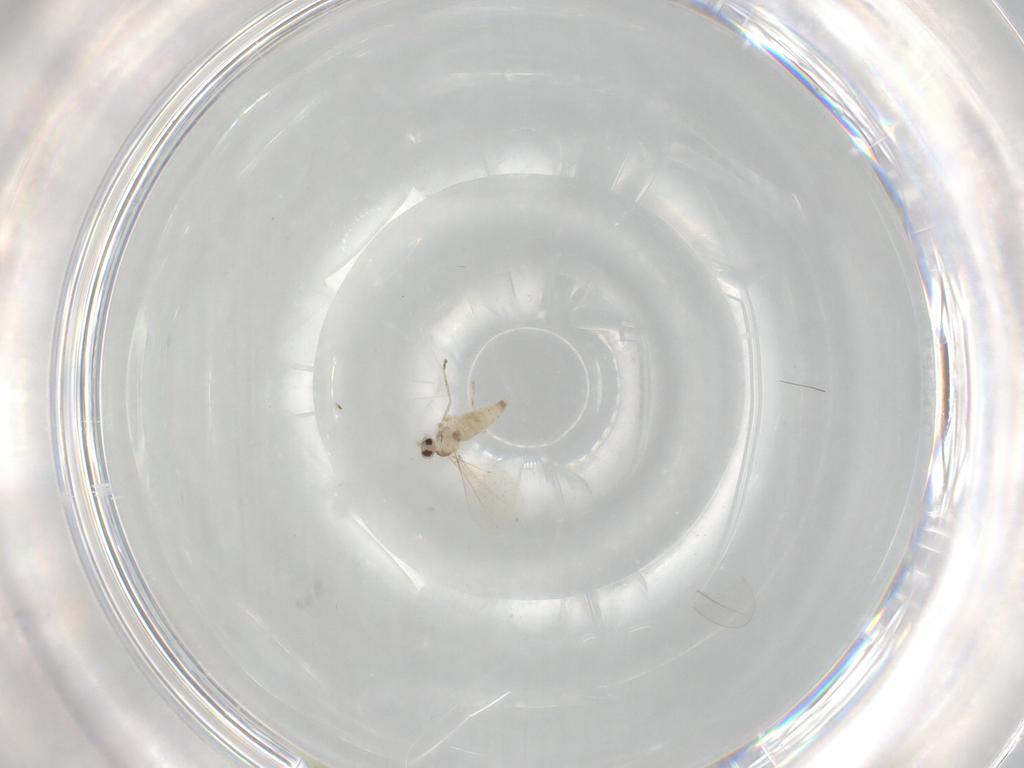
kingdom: Animalia
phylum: Arthropoda
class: Insecta
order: Diptera
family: Cecidomyiidae
